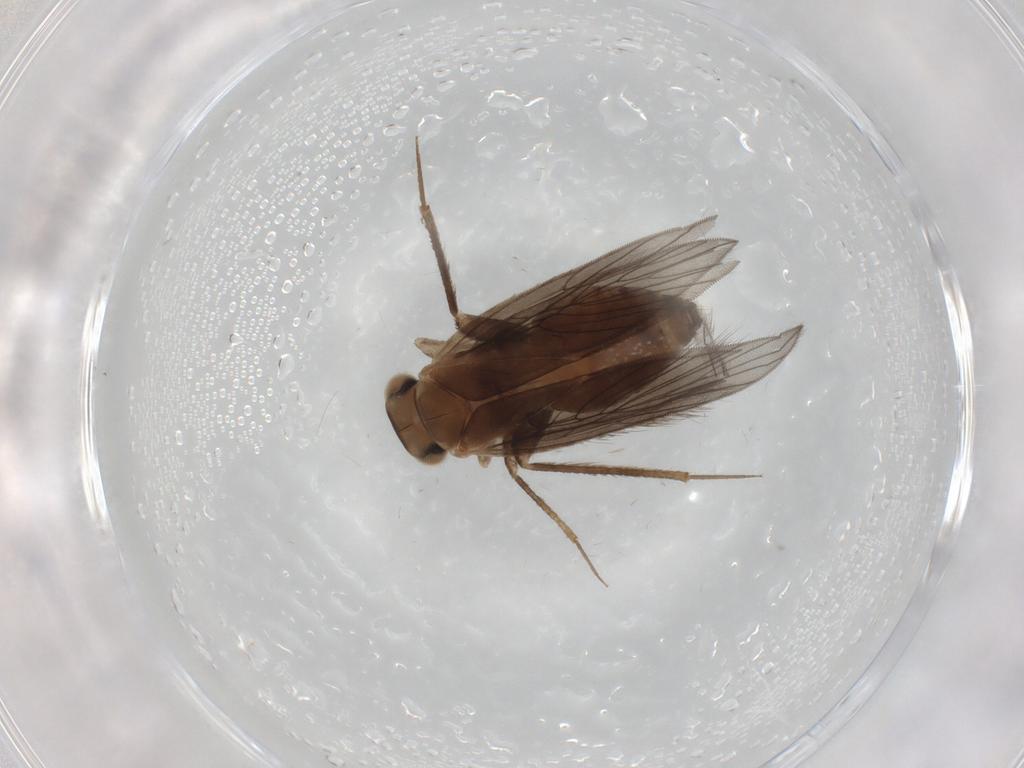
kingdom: Animalia
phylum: Arthropoda
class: Insecta
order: Psocodea
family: Lepidopsocidae
